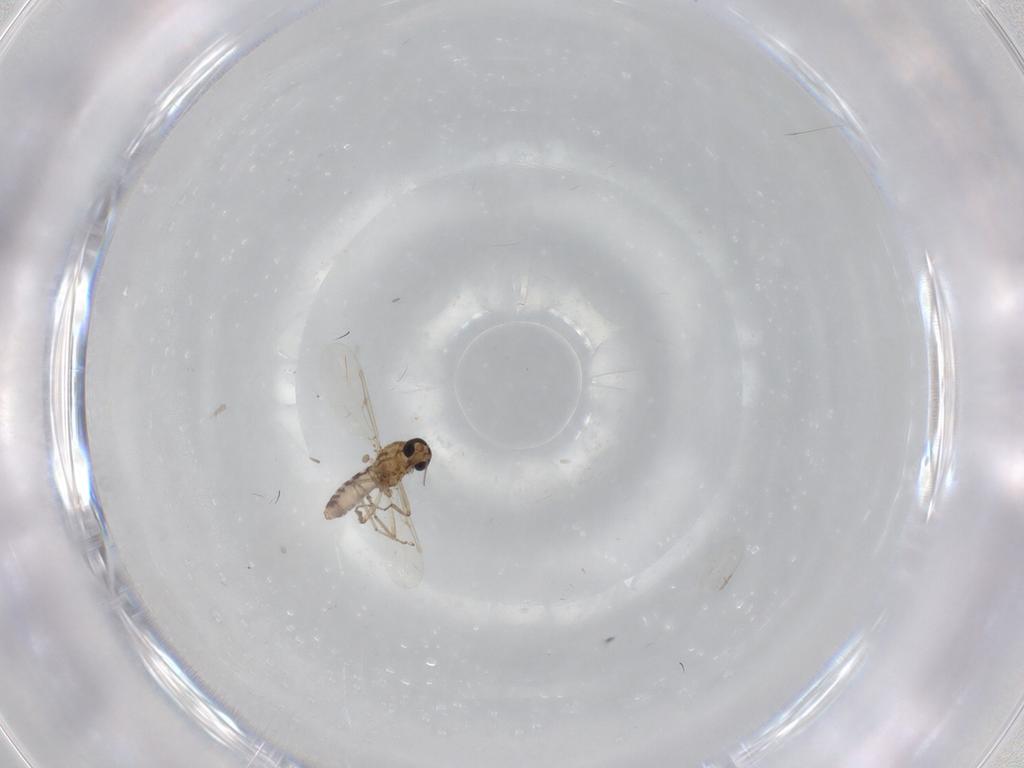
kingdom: Animalia
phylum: Arthropoda
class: Insecta
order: Diptera
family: Ceratopogonidae
